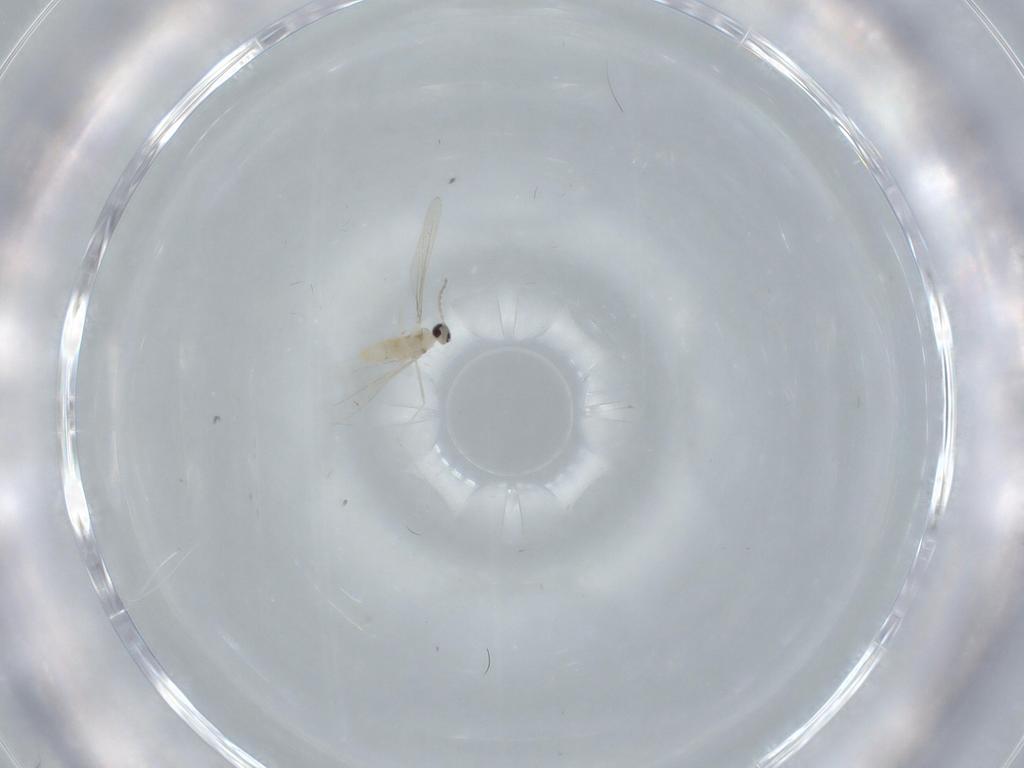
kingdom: Animalia
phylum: Arthropoda
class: Insecta
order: Diptera
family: Cecidomyiidae
